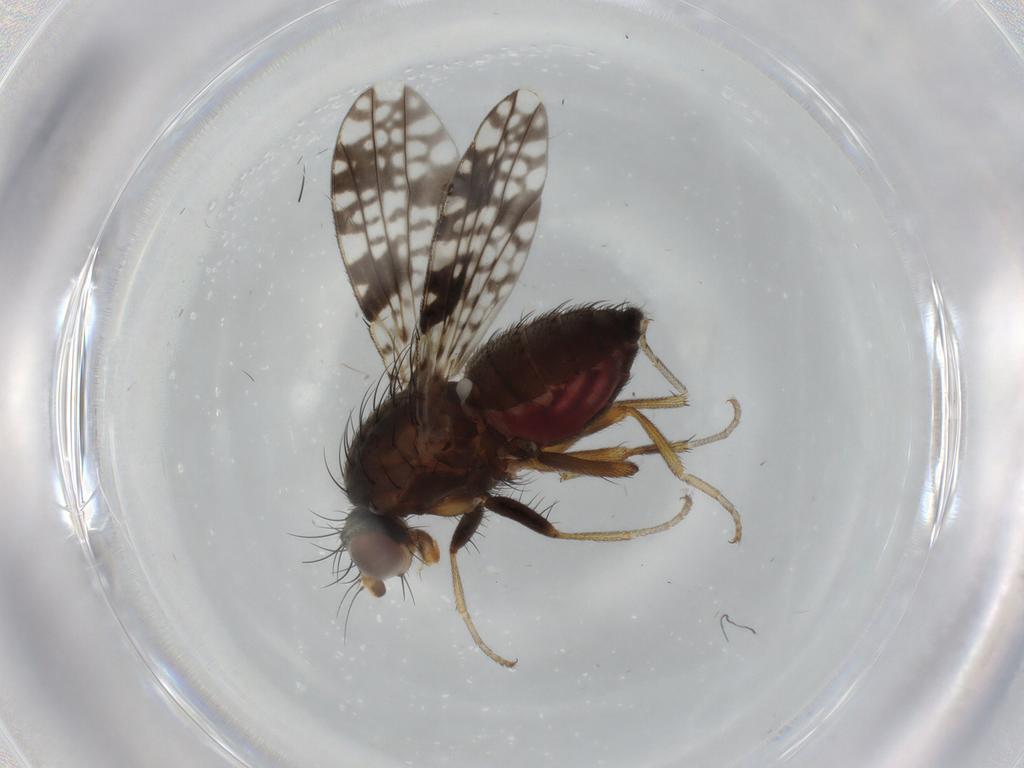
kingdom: Animalia
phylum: Arthropoda
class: Insecta
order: Diptera
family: Tephritidae
